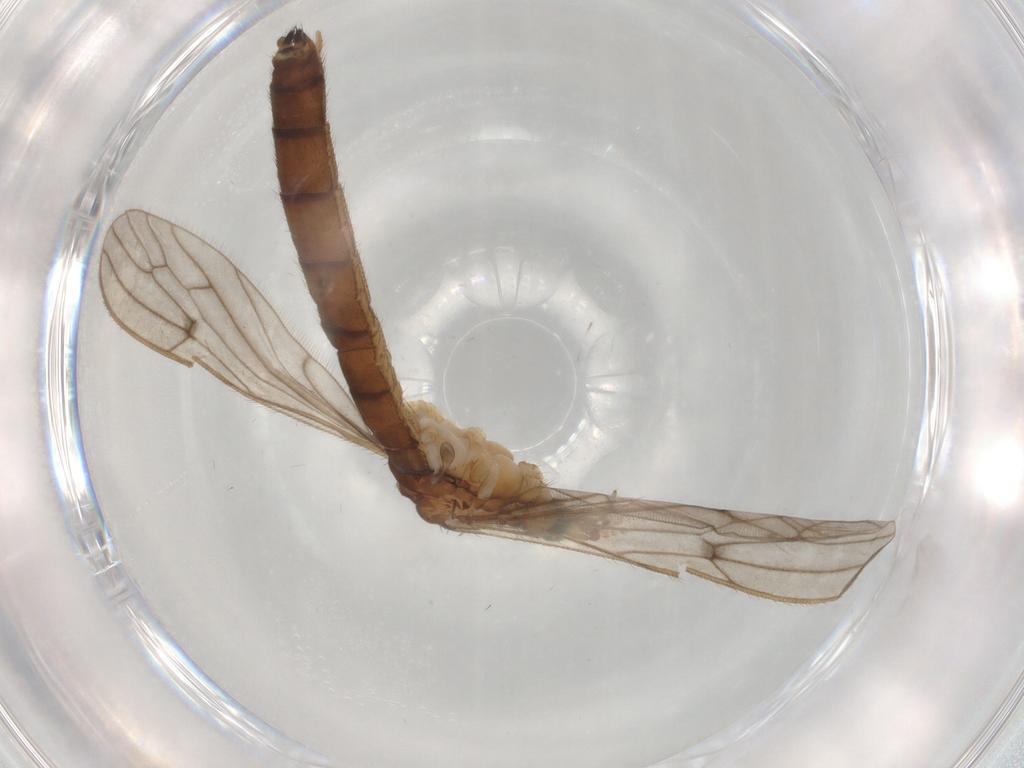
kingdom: Animalia
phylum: Arthropoda
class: Insecta
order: Diptera
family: Limoniidae
